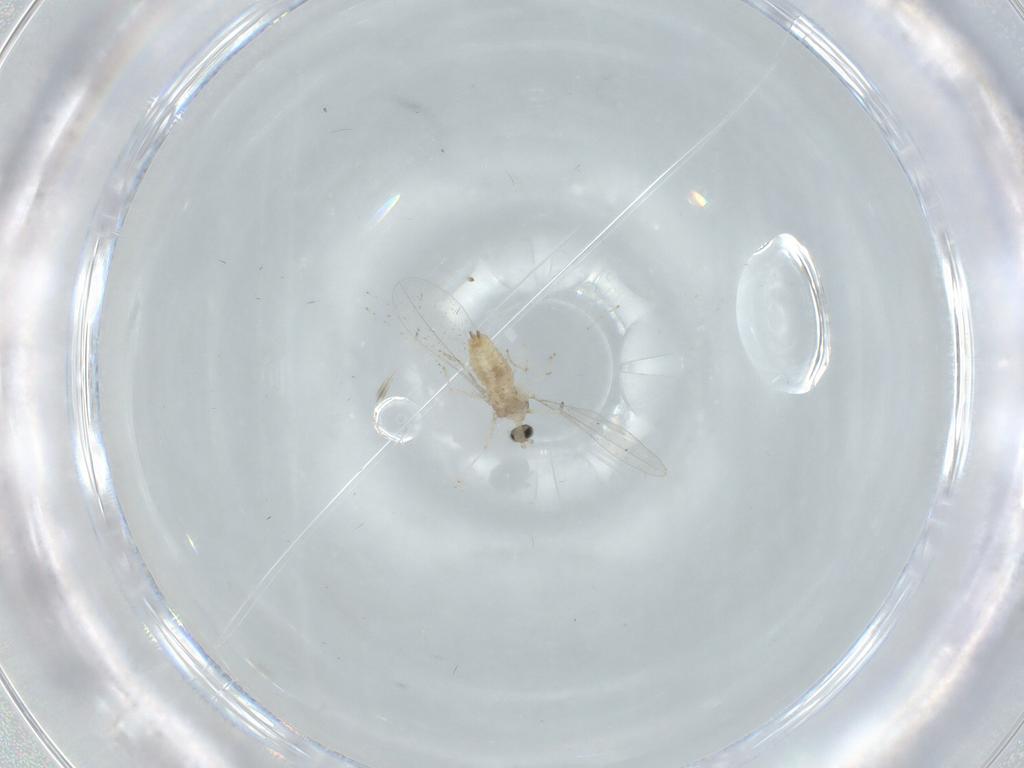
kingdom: Animalia
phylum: Arthropoda
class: Insecta
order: Diptera
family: Cecidomyiidae
